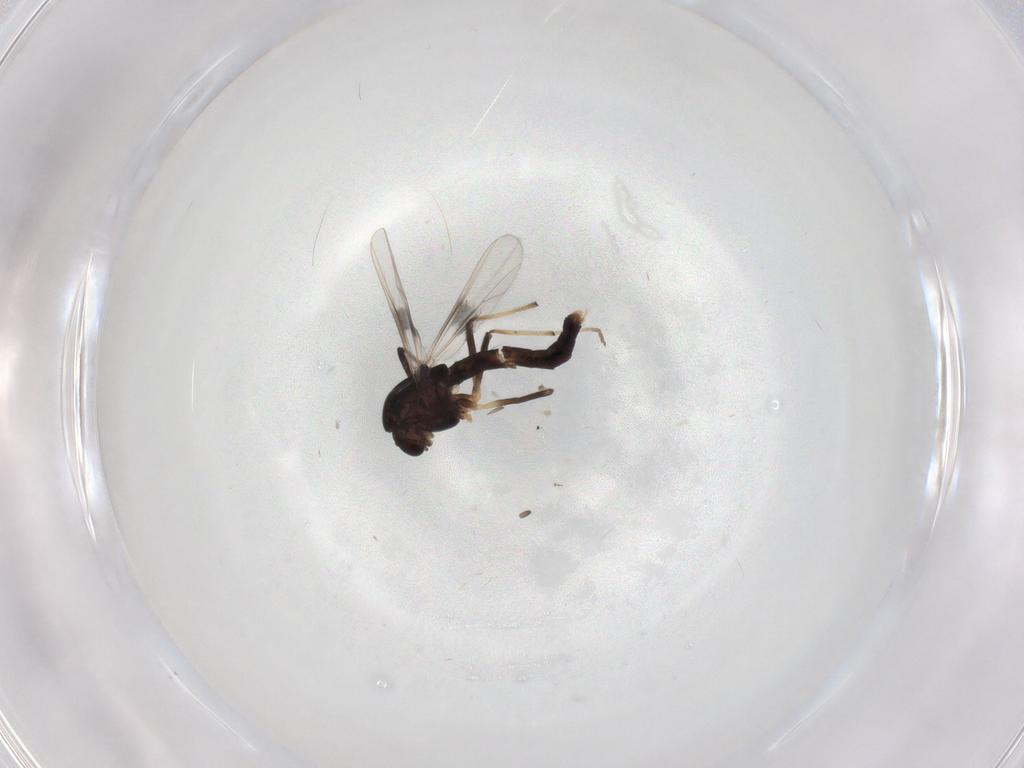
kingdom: Animalia
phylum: Arthropoda
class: Insecta
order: Diptera
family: Chironomidae
